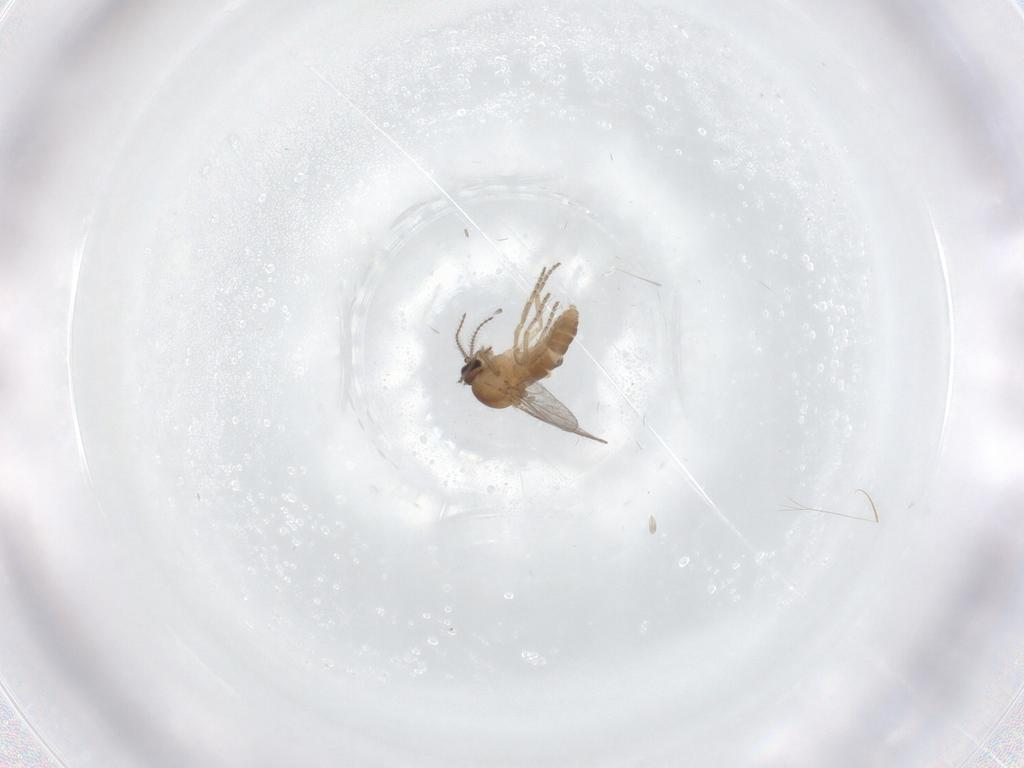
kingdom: Animalia
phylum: Arthropoda
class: Insecta
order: Diptera
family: Ceratopogonidae
